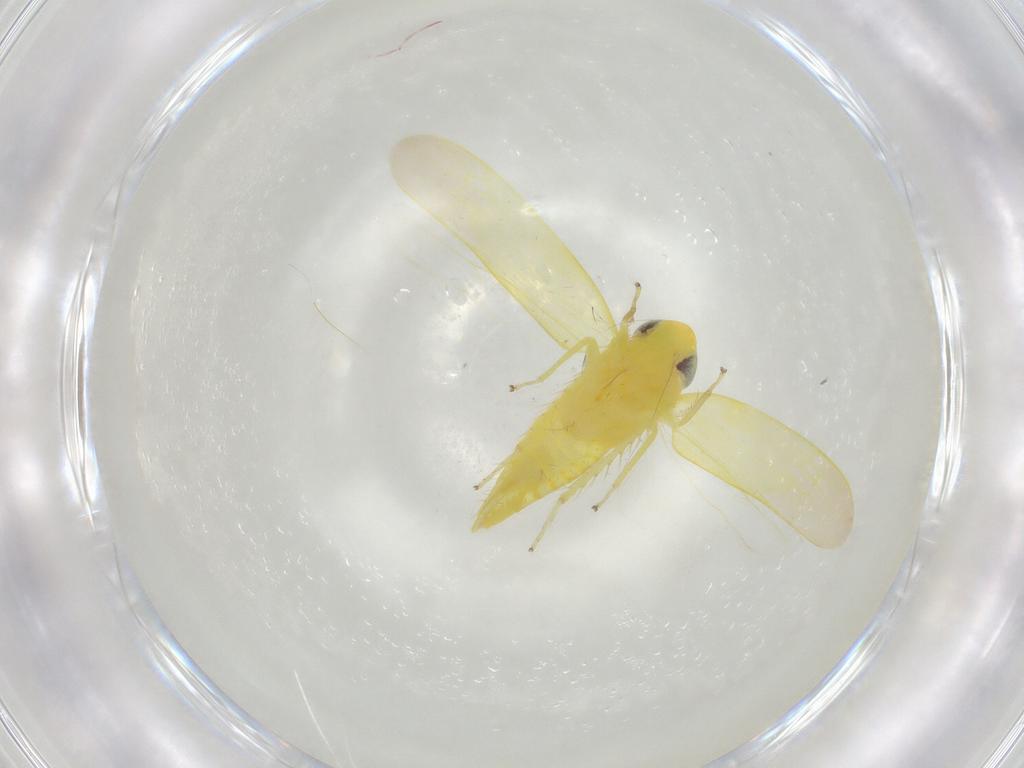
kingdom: Animalia
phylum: Arthropoda
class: Insecta
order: Hemiptera
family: Cicadellidae
